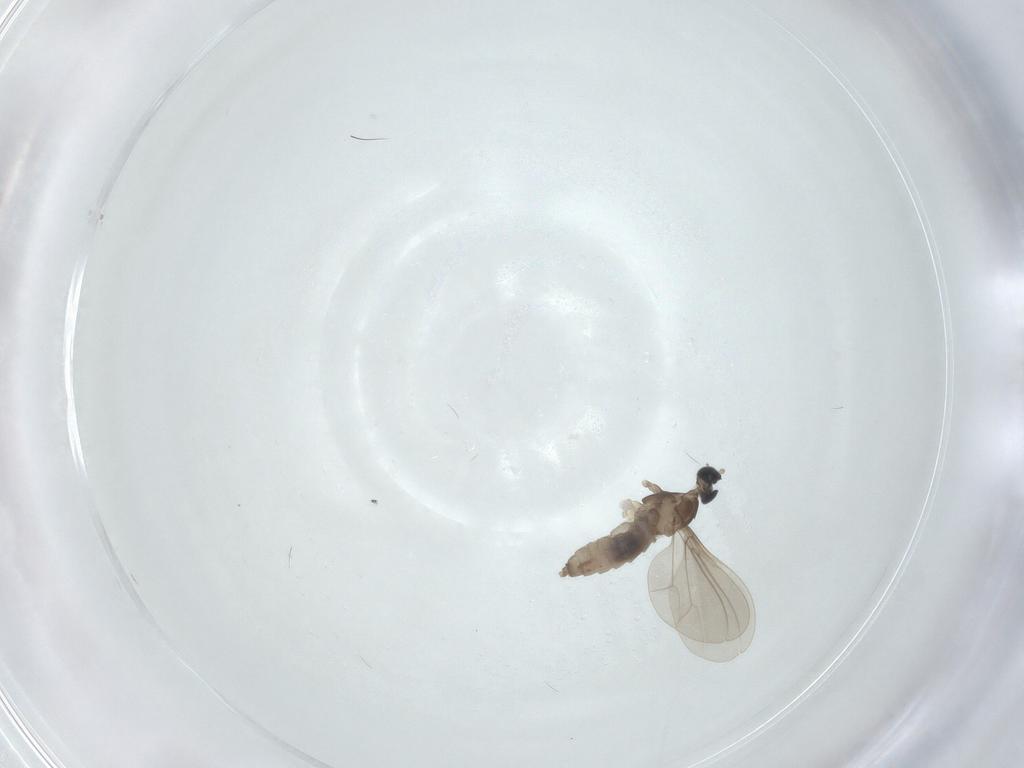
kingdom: Animalia
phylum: Arthropoda
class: Insecta
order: Diptera
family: Cecidomyiidae
